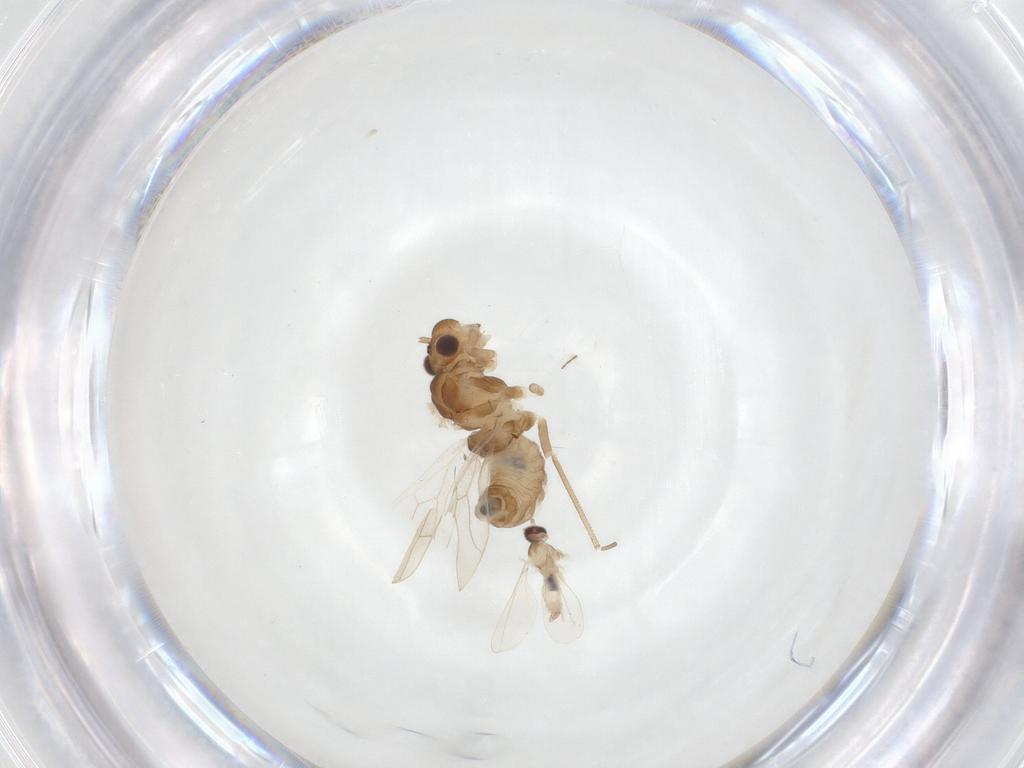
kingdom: Animalia
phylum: Arthropoda
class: Insecta
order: Psocodea
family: Philotarsidae
